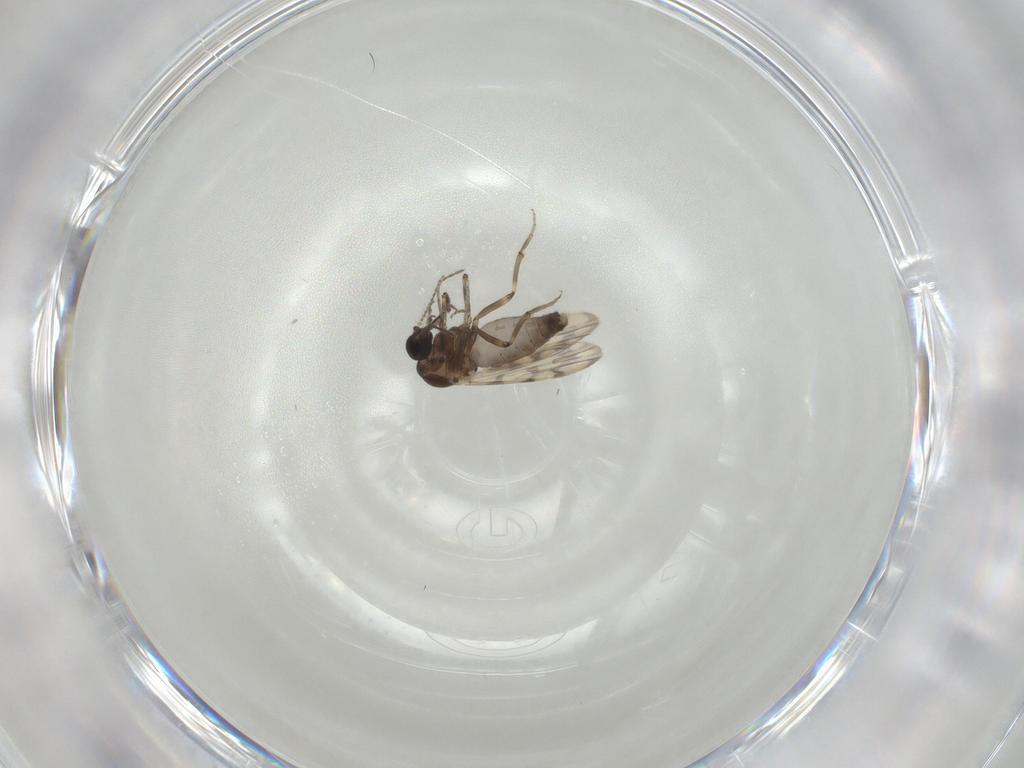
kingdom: Animalia
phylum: Arthropoda
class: Insecta
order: Diptera
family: Ceratopogonidae
